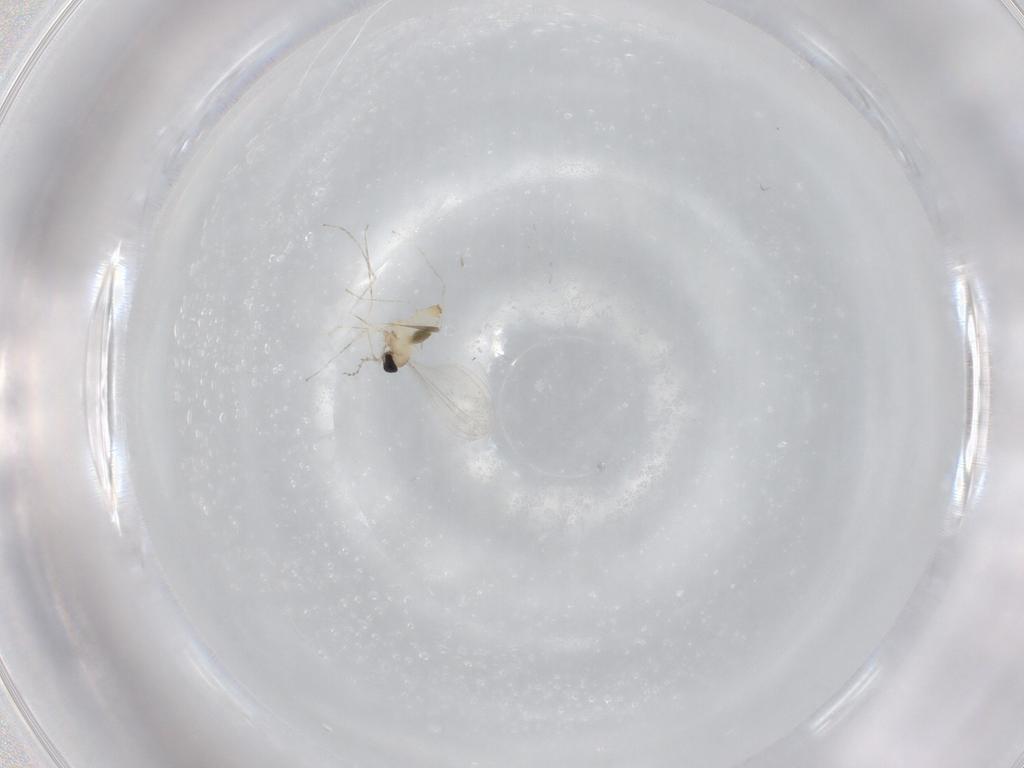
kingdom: Animalia
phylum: Arthropoda
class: Insecta
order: Diptera
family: Cecidomyiidae
